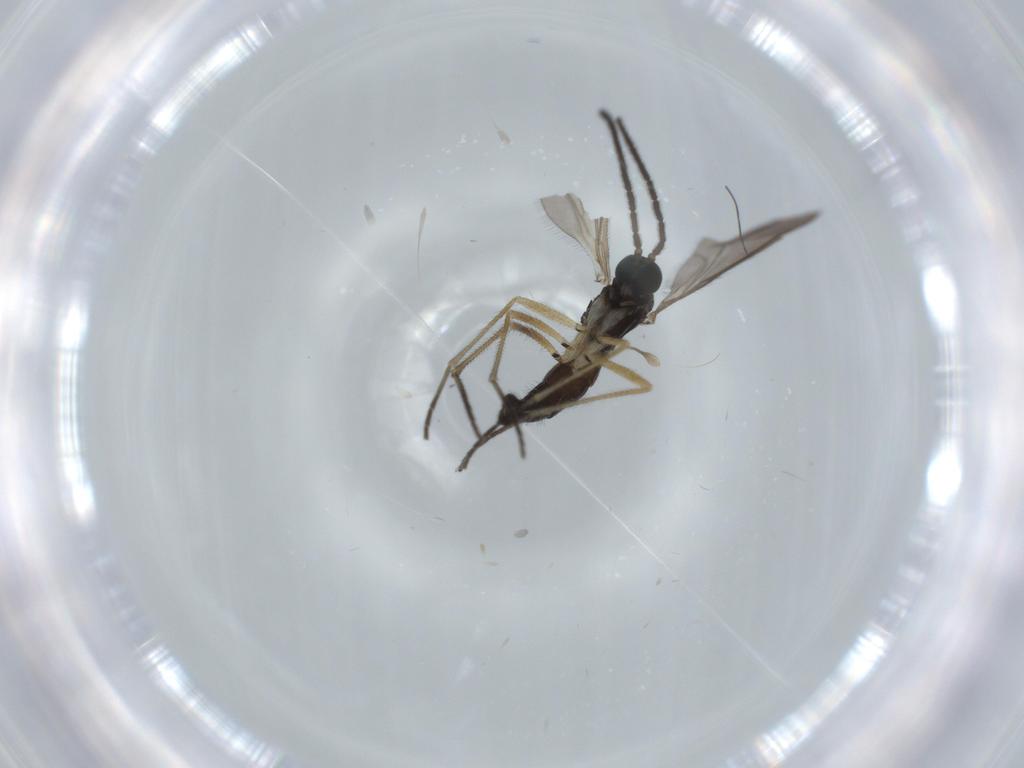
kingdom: Animalia
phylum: Arthropoda
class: Insecta
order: Diptera
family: Sciaridae
